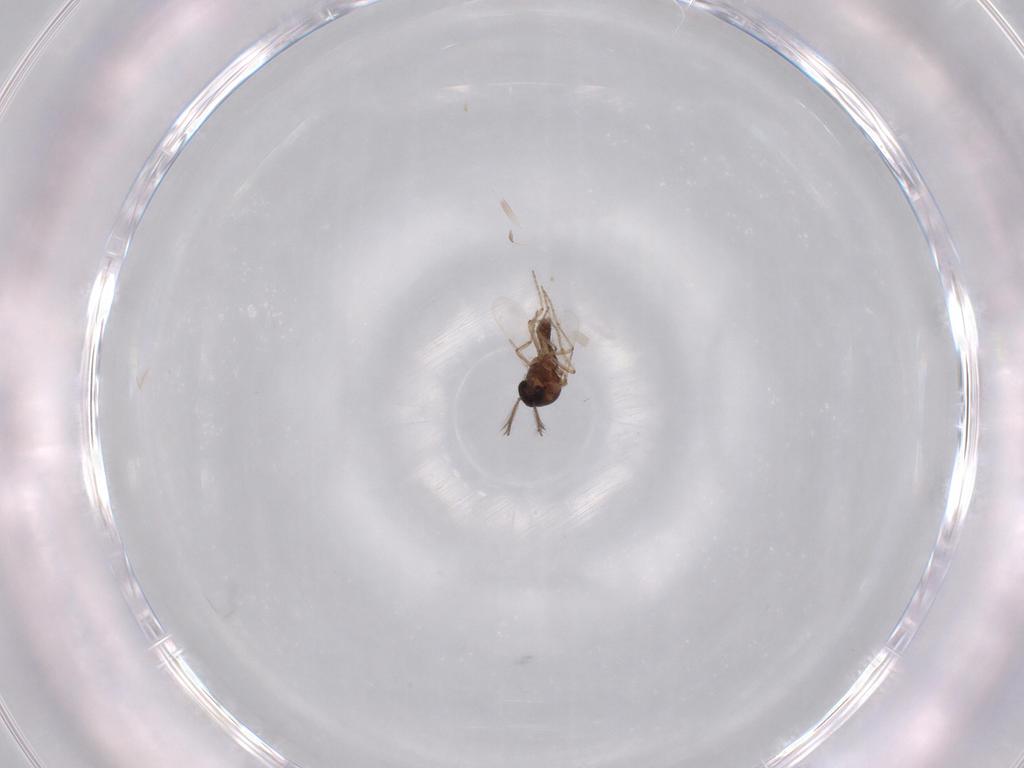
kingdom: Animalia
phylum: Arthropoda
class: Insecta
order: Diptera
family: Ceratopogonidae
